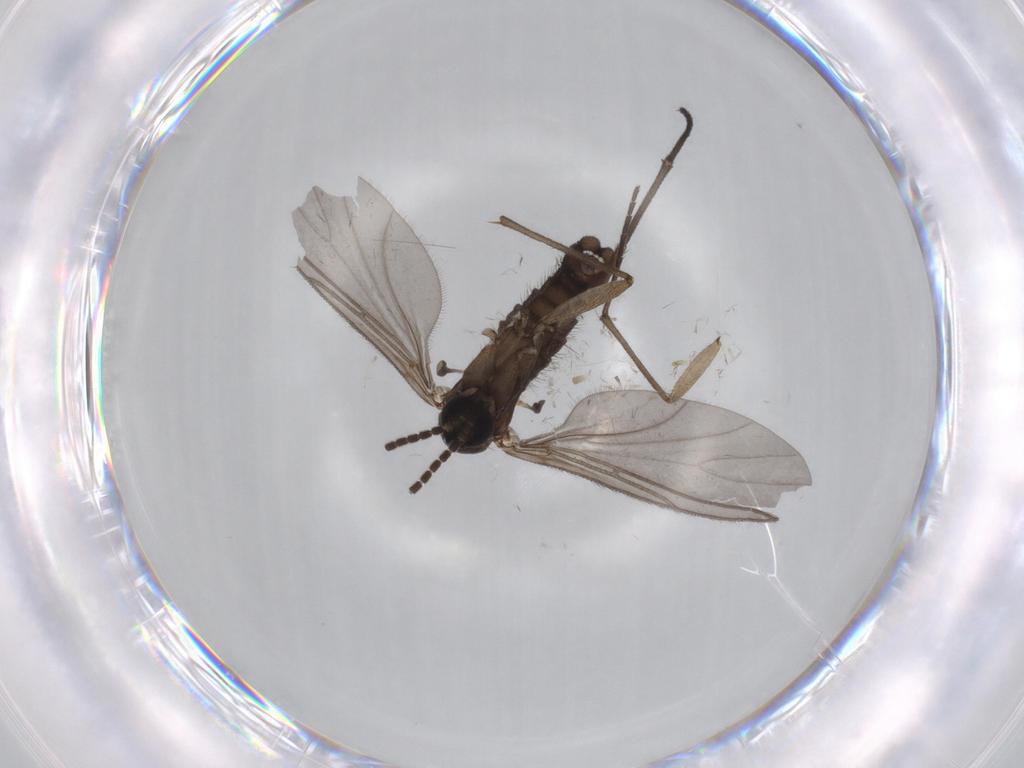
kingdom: Animalia
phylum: Arthropoda
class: Insecta
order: Diptera
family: Sciaridae
